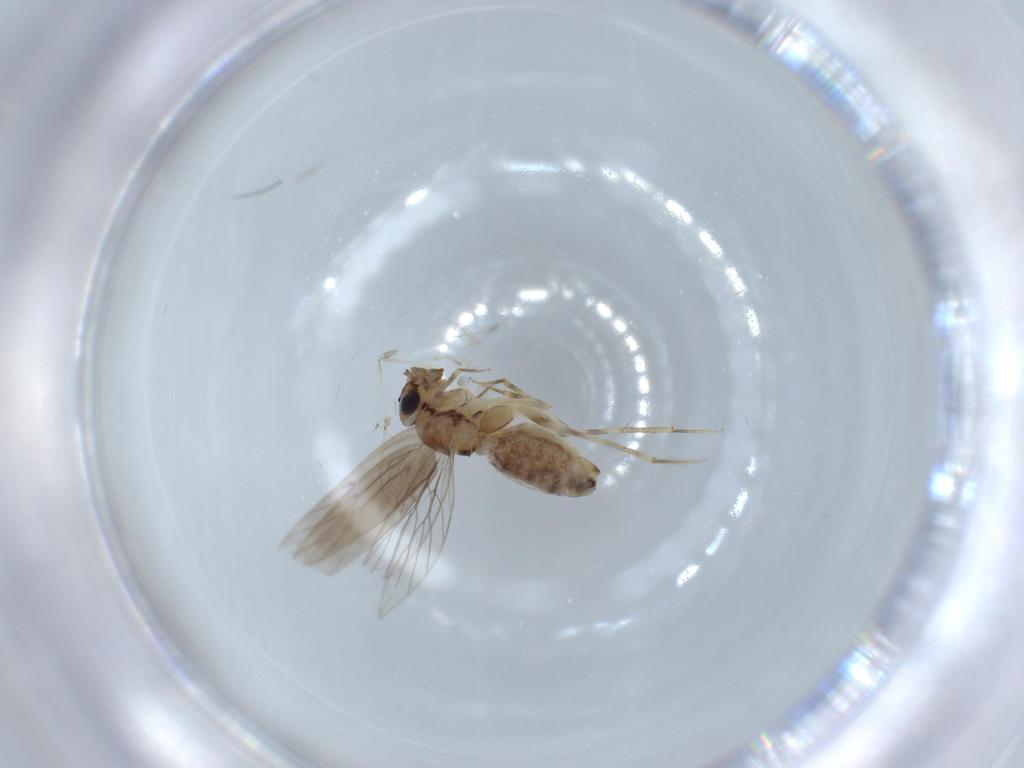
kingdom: Animalia
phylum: Arthropoda
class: Insecta
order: Psocodea
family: Lepidopsocidae
